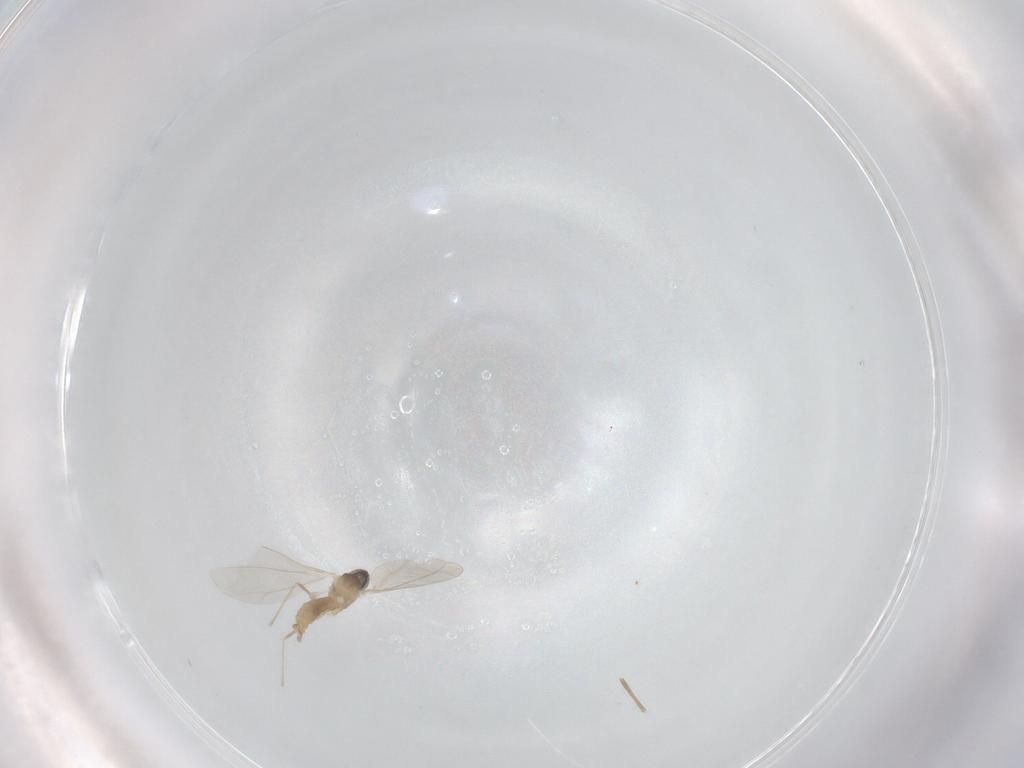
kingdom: Animalia
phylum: Arthropoda
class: Insecta
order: Diptera
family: Cecidomyiidae
